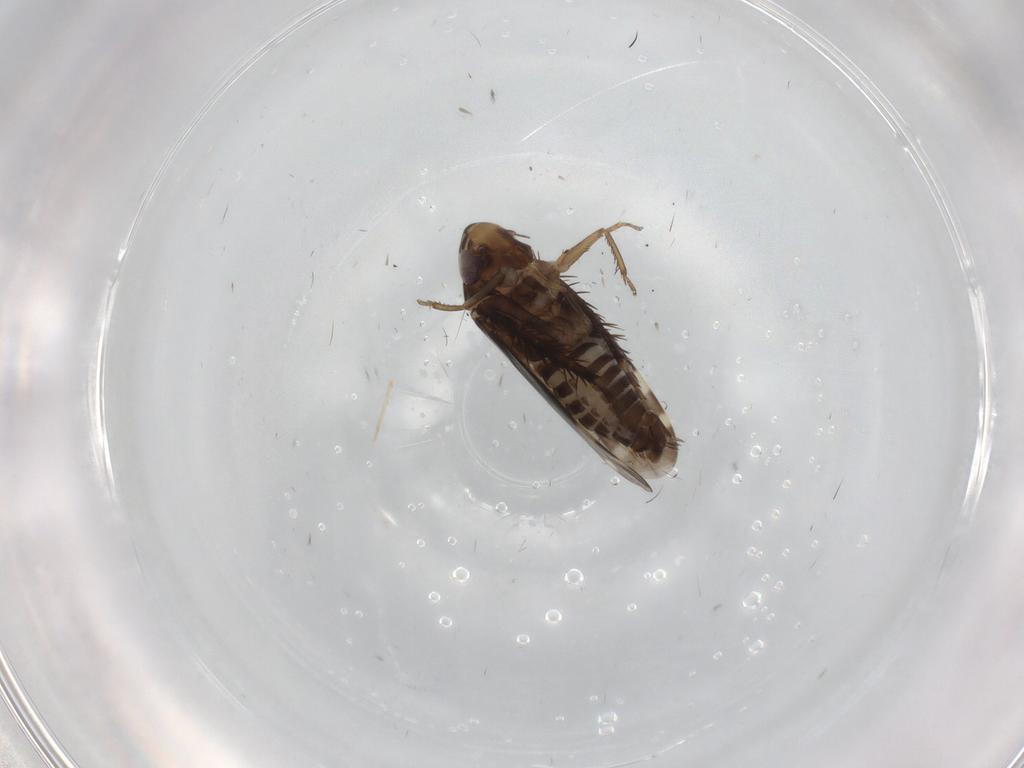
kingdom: Animalia
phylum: Arthropoda
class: Insecta
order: Hemiptera
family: Cicadellidae
